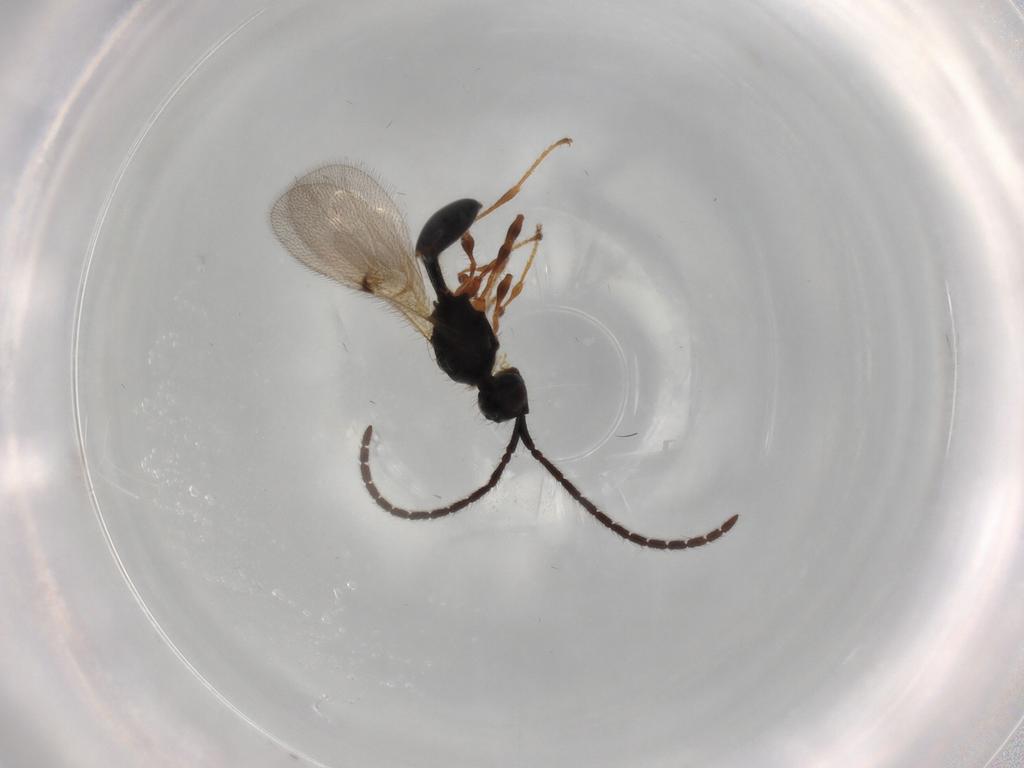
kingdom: Animalia
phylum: Arthropoda
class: Insecta
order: Hymenoptera
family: Diapriidae
